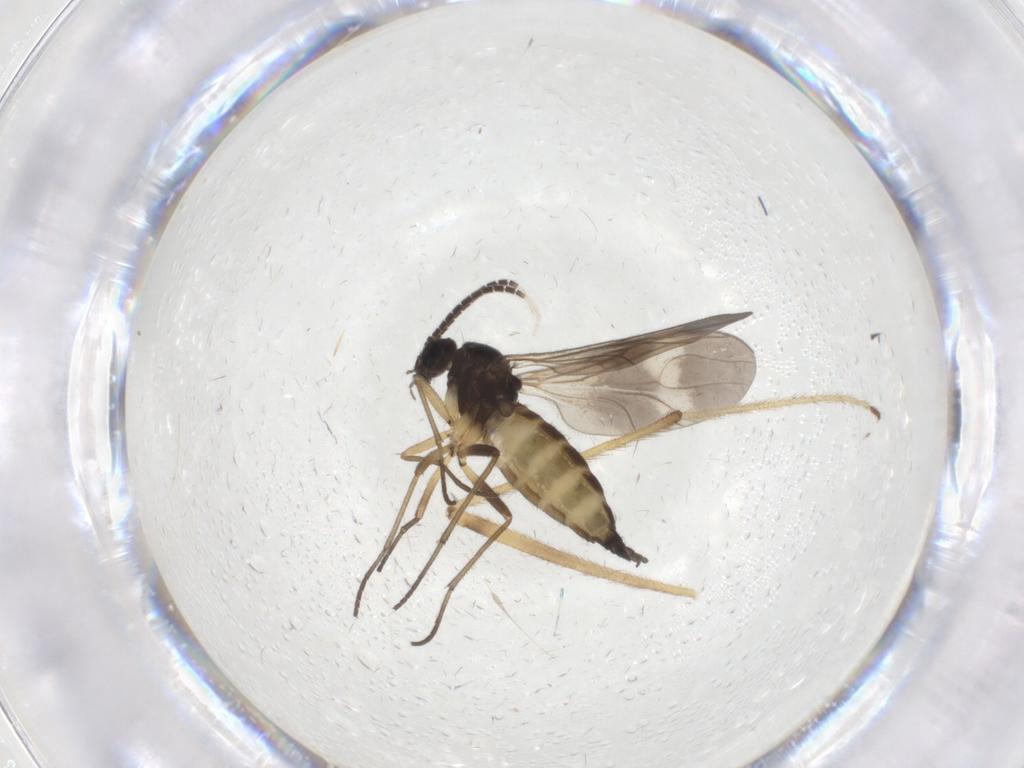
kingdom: Animalia
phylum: Arthropoda
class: Insecta
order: Diptera
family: Sciaridae
